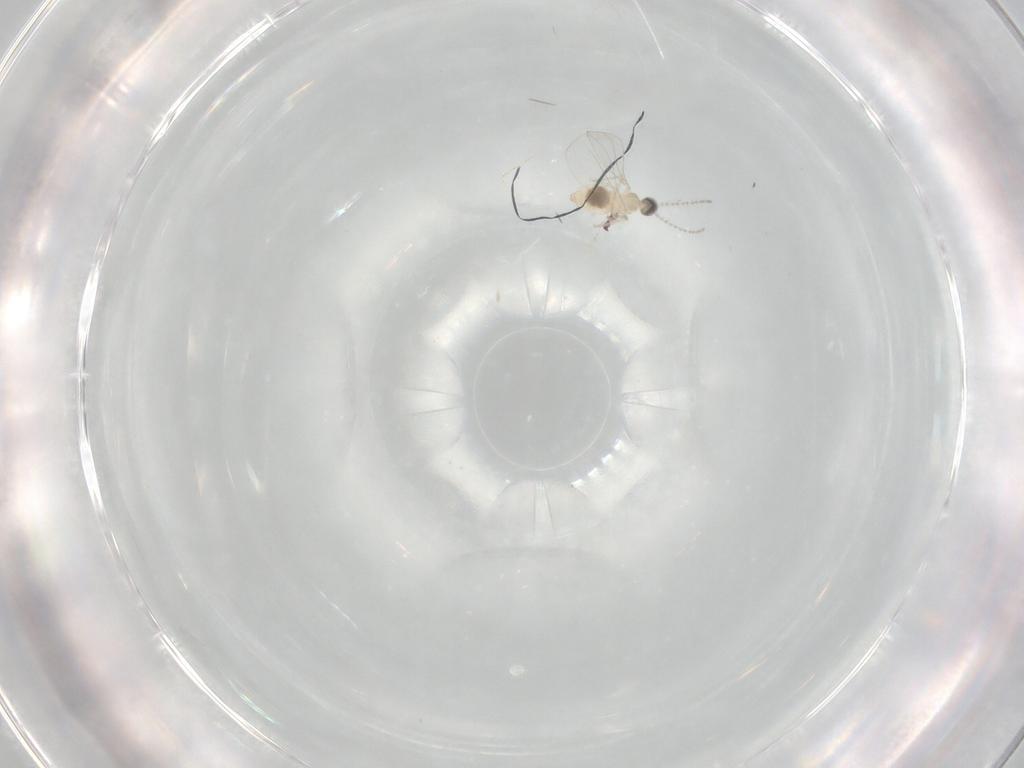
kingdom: Animalia
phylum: Arthropoda
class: Insecta
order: Diptera
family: Cecidomyiidae
